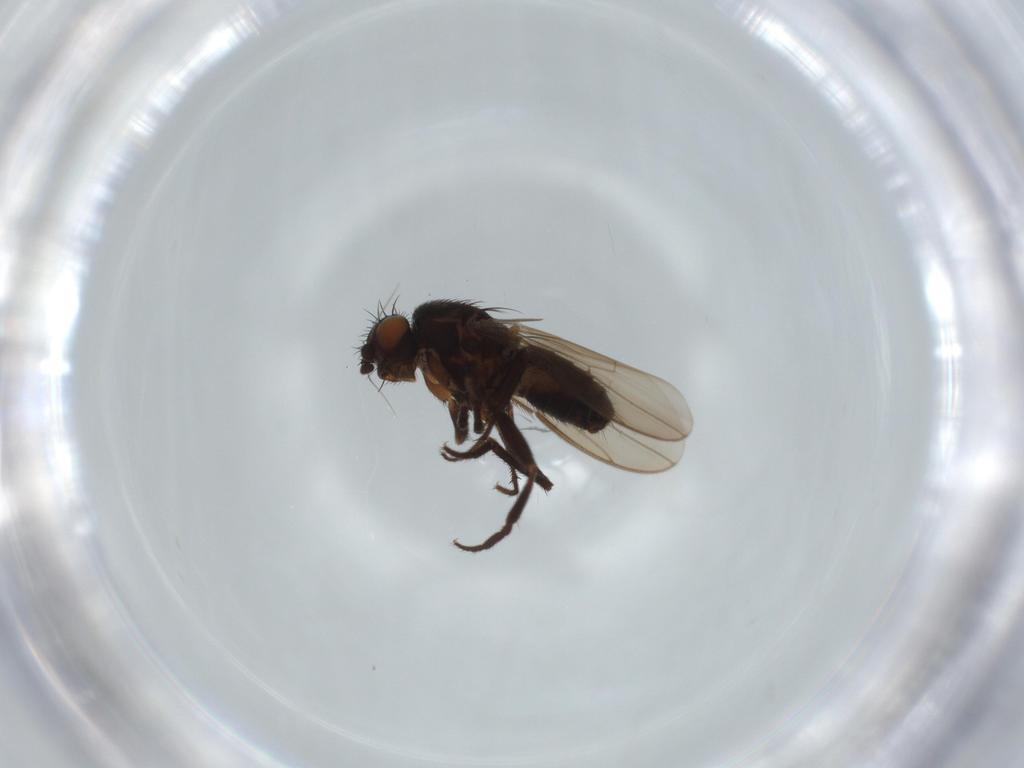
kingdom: Animalia
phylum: Arthropoda
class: Insecta
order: Diptera
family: Sphaeroceridae
